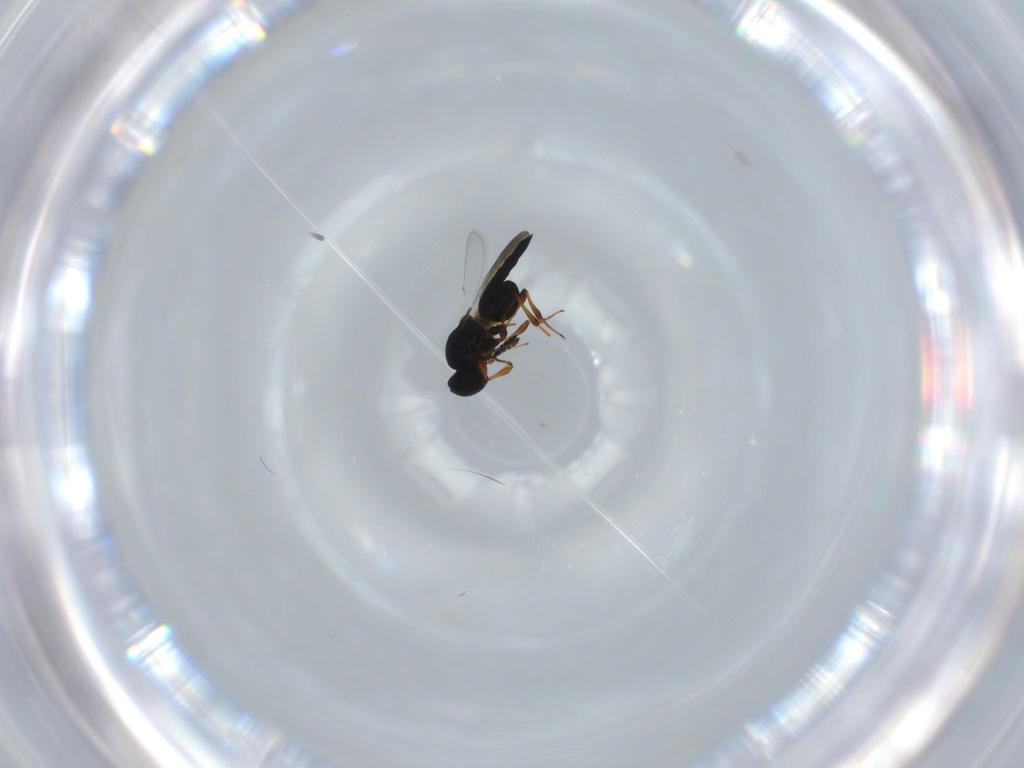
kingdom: Animalia
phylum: Arthropoda
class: Insecta
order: Hymenoptera
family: Platygastridae
